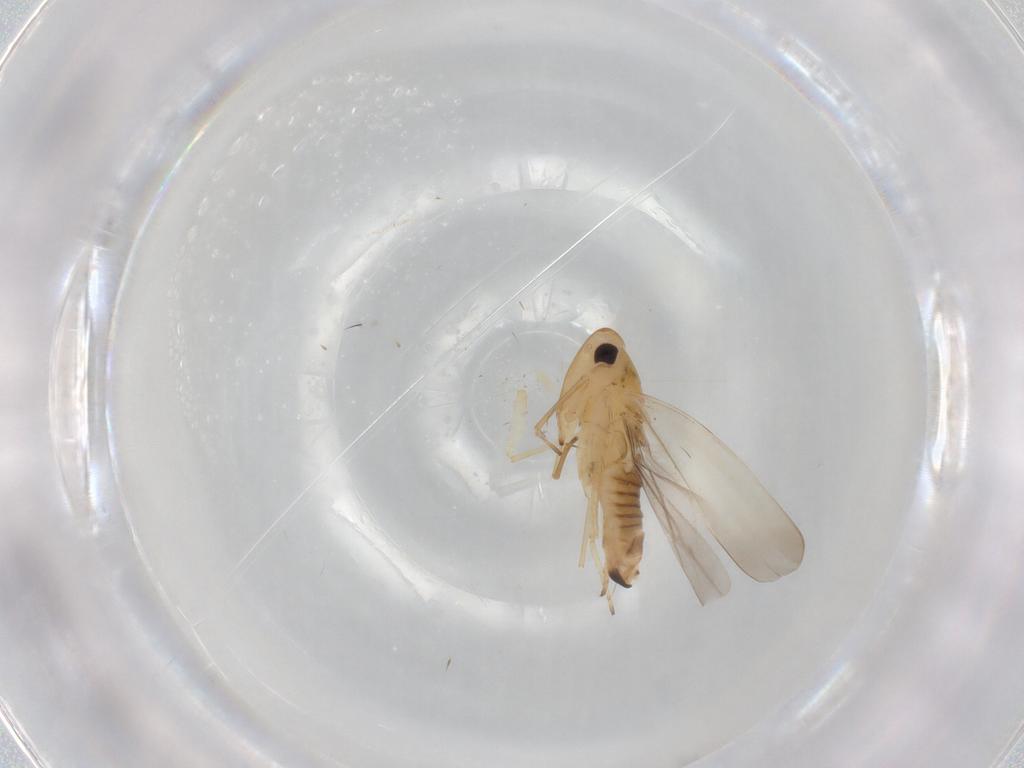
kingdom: Animalia
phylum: Arthropoda
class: Insecta
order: Hemiptera
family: Cicadellidae
